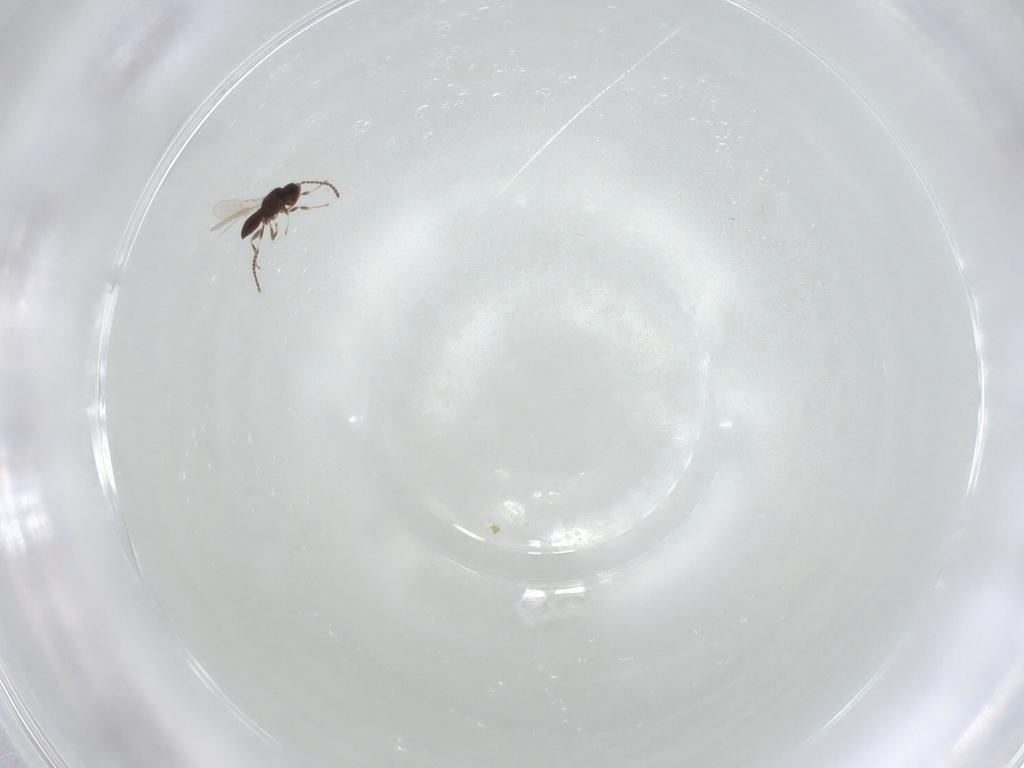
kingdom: Animalia
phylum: Arthropoda
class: Insecta
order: Hymenoptera
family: Scelionidae
